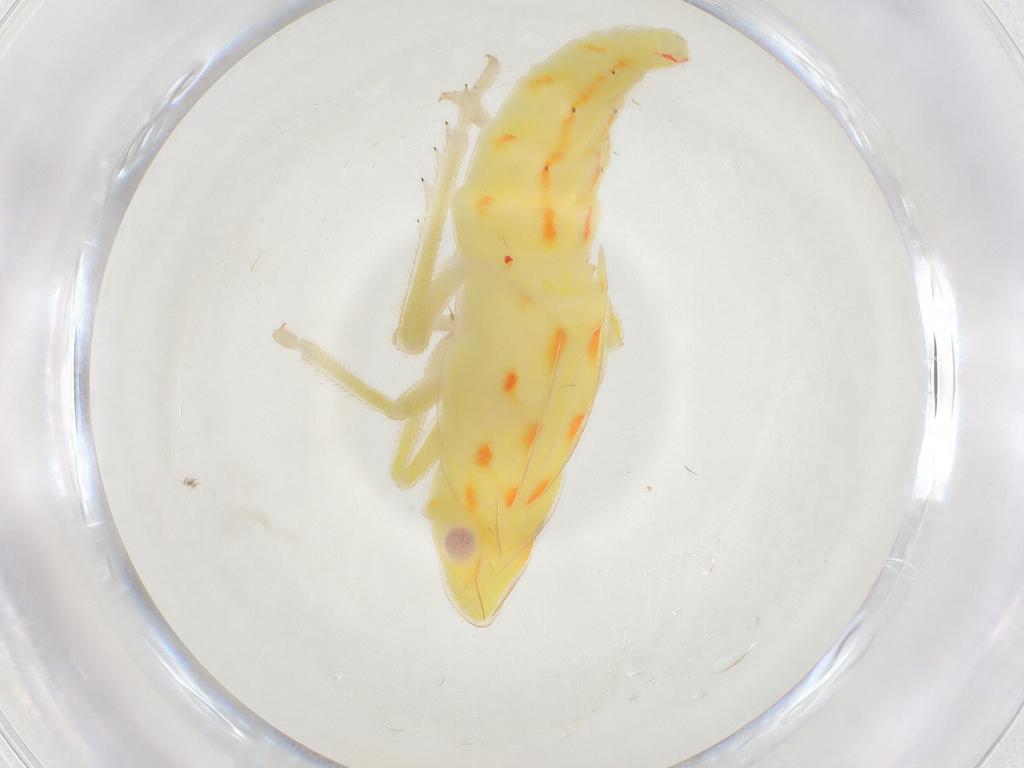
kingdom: Animalia
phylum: Arthropoda
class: Insecta
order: Hemiptera
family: Tropiduchidae
